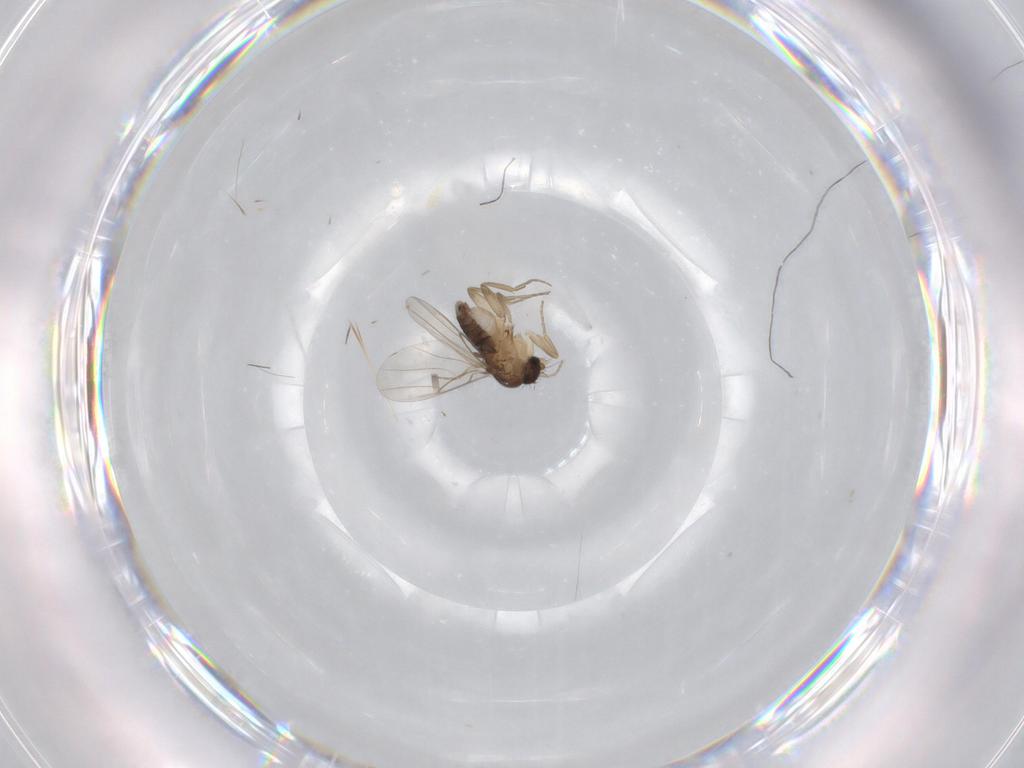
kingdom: Animalia
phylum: Arthropoda
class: Insecta
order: Diptera
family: Phoridae
